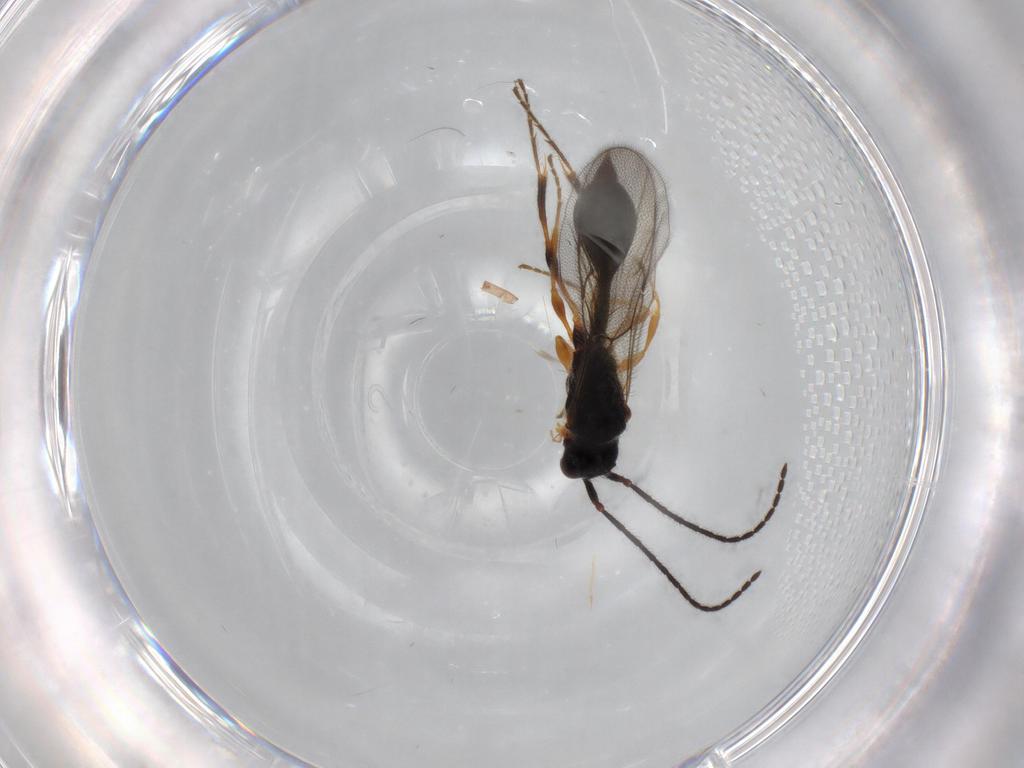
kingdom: Animalia
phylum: Arthropoda
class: Insecta
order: Hymenoptera
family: Diapriidae
